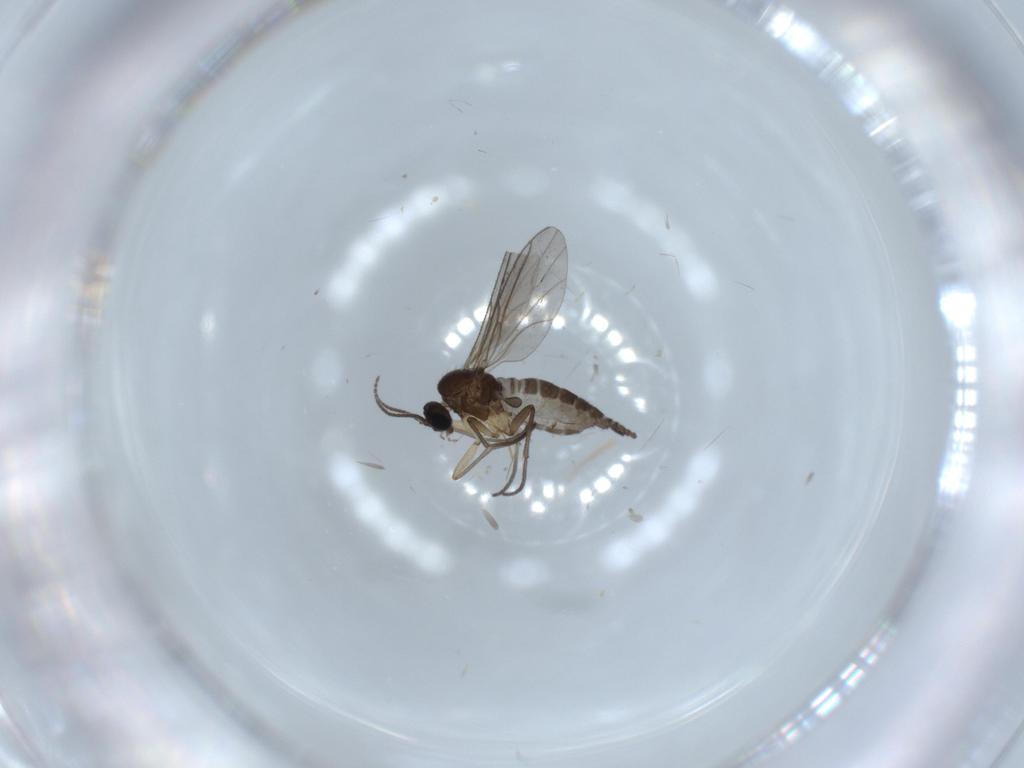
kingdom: Animalia
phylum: Arthropoda
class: Insecta
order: Diptera
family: Sciaridae
